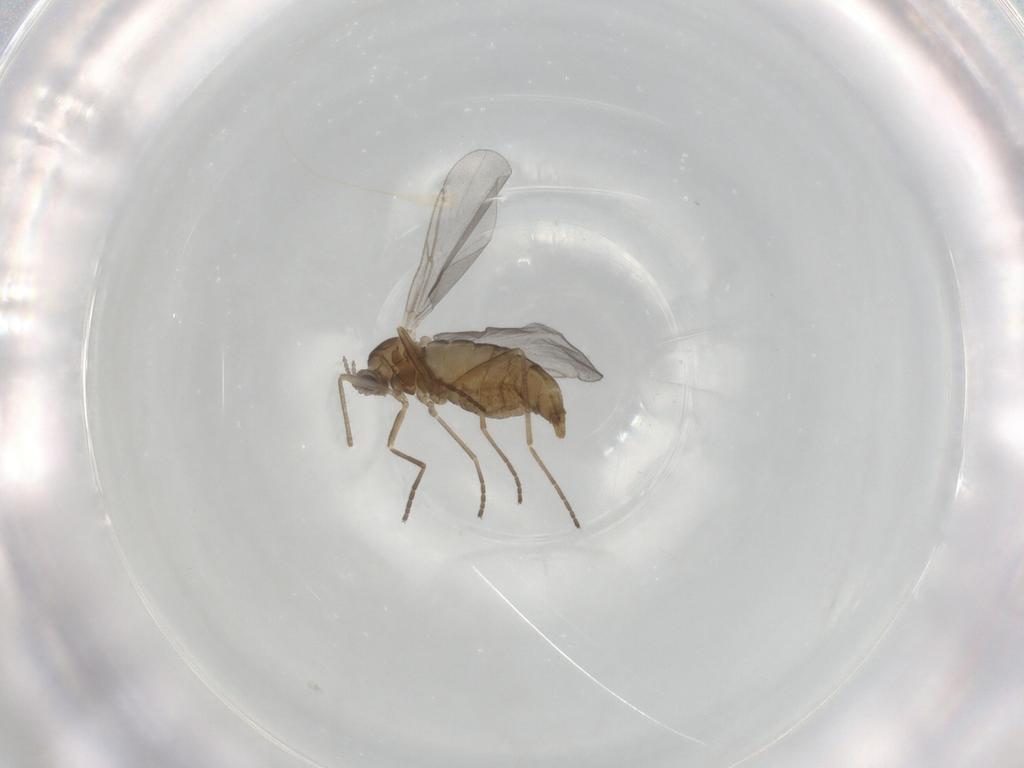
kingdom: Animalia
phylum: Arthropoda
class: Insecta
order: Diptera
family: Cecidomyiidae
